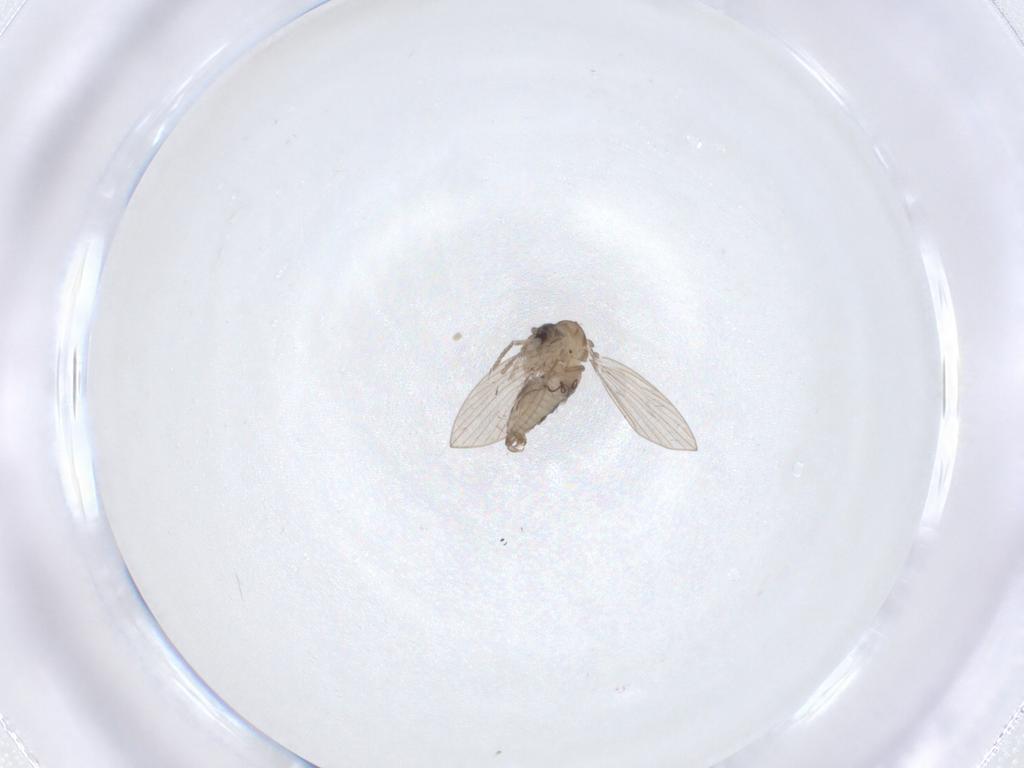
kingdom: Animalia
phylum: Arthropoda
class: Insecta
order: Diptera
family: Psychodidae
